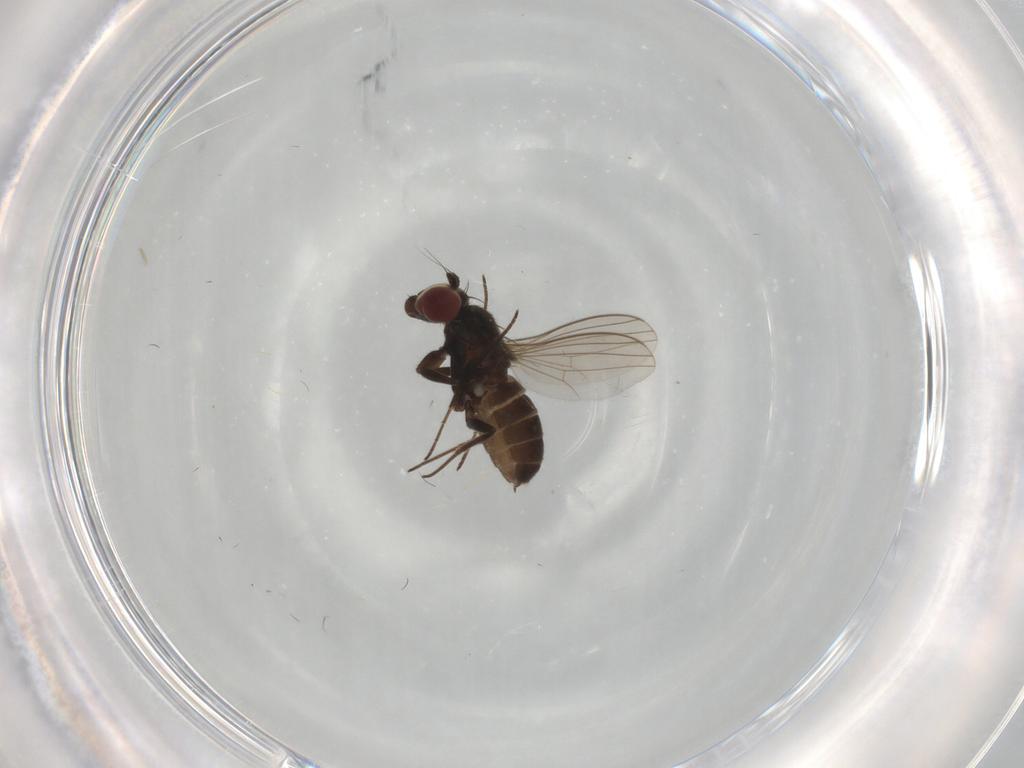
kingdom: Animalia
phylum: Arthropoda
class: Insecta
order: Diptera
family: Dolichopodidae
